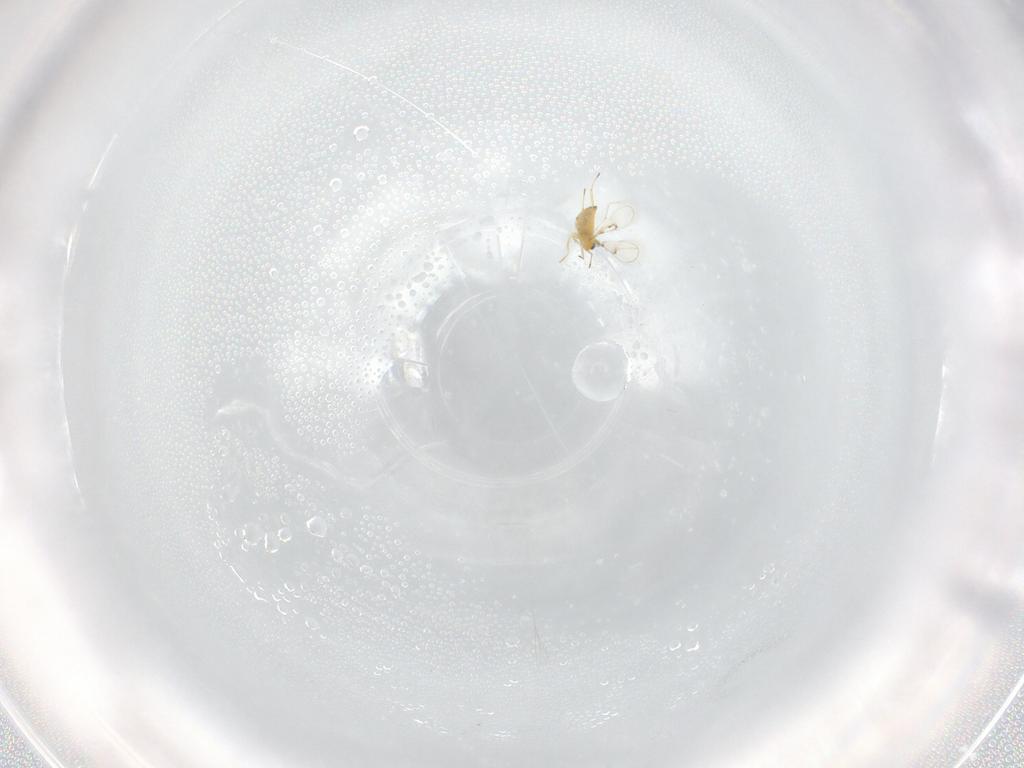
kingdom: Animalia
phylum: Arthropoda
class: Insecta
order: Hymenoptera
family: Trichogrammatidae
